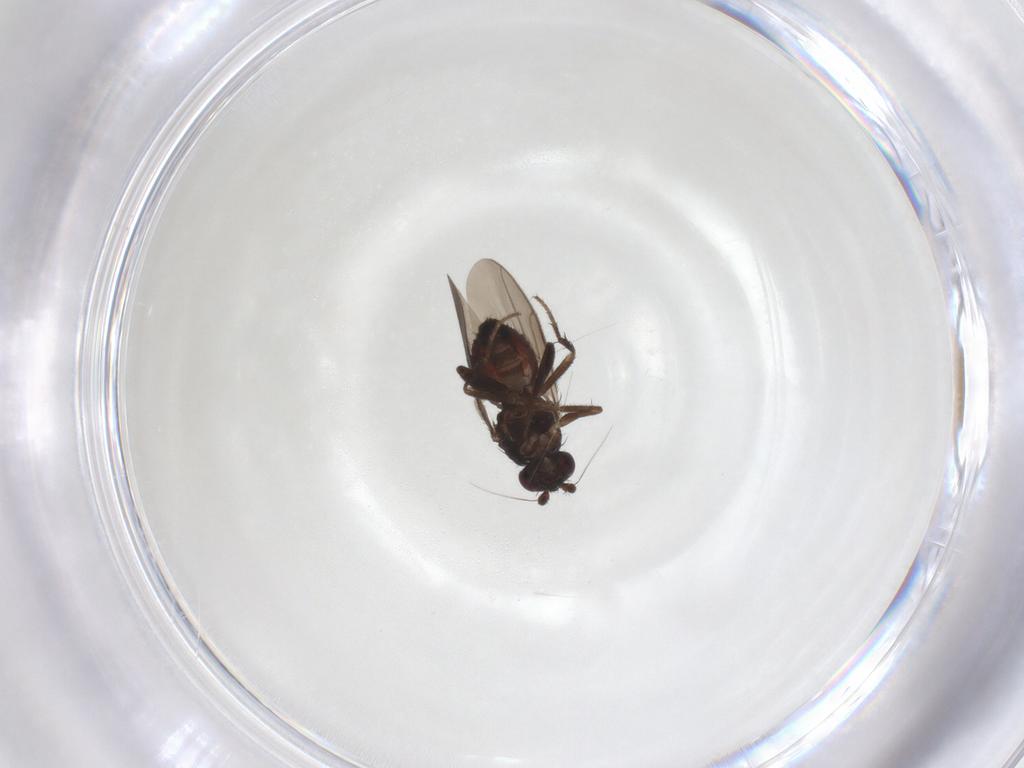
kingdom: Animalia
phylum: Arthropoda
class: Insecta
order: Diptera
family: Sphaeroceridae
